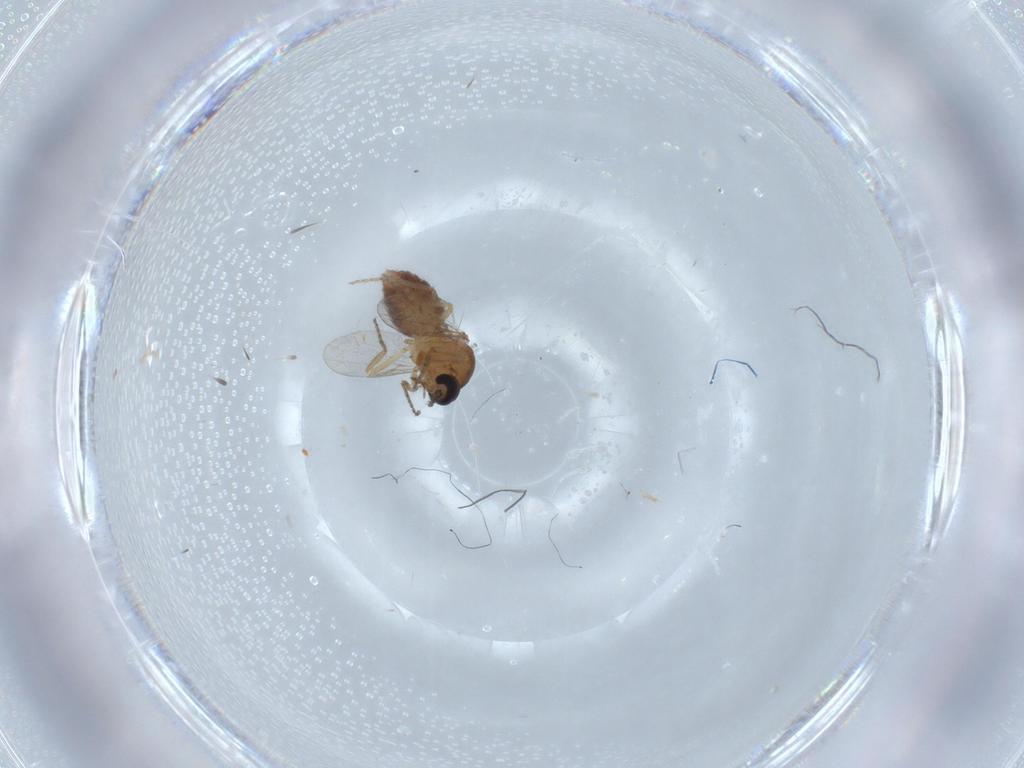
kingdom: Animalia
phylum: Arthropoda
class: Insecta
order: Diptera
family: Ceratopogonidae
